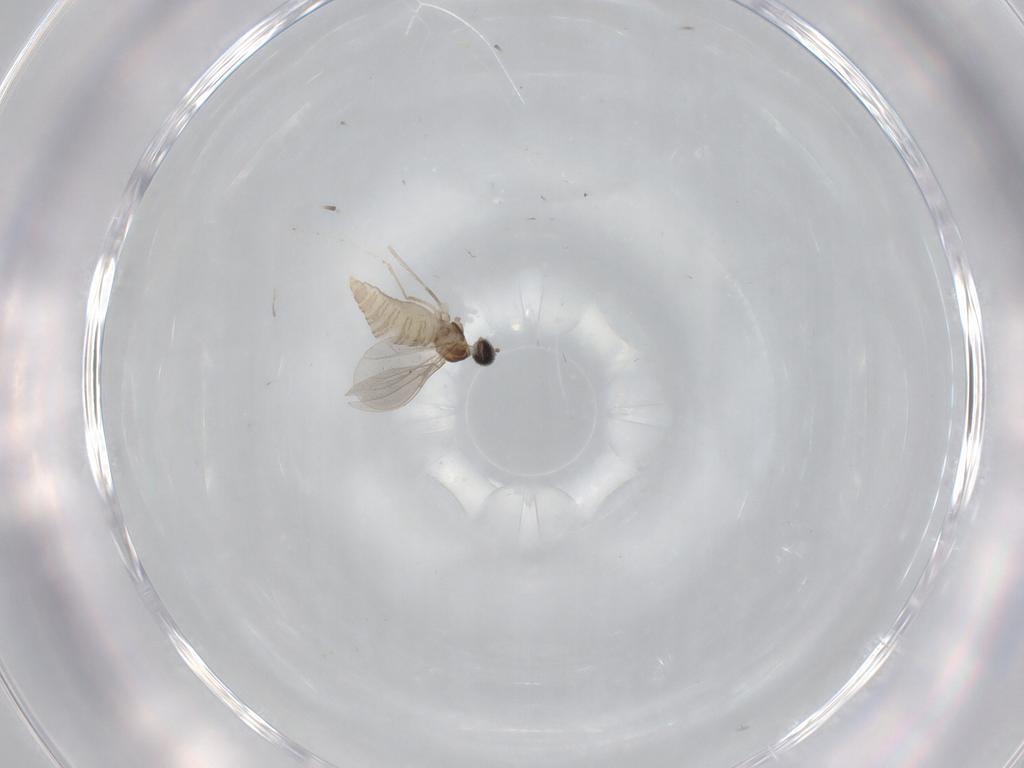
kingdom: Animalia
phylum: Arthropoda
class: Insecta
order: Diptera
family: Cecidomyiidae
